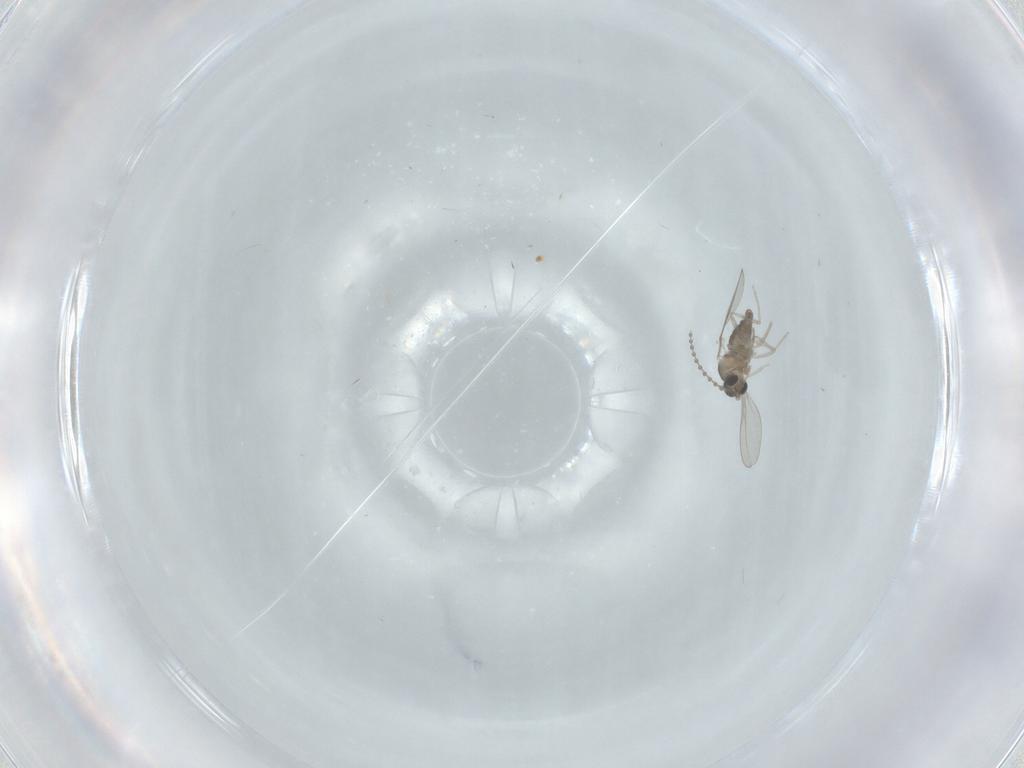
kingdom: Animalia
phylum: Arthropoda
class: Insecta
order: Diptera
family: Cecidomyiidae
